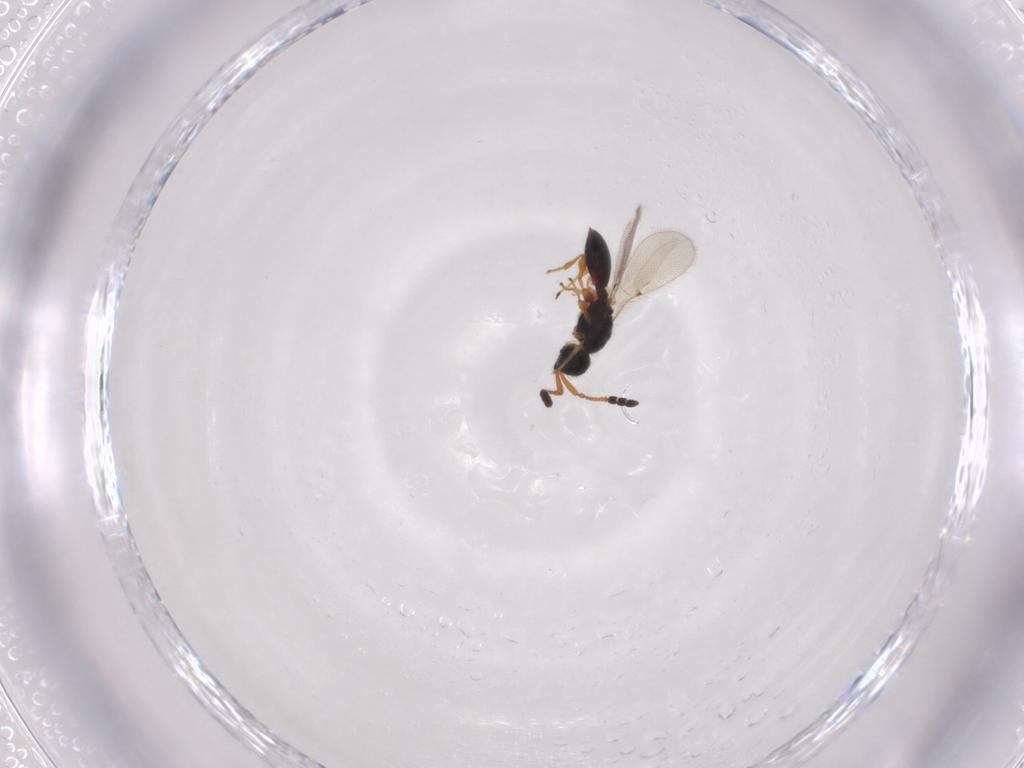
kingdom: Animalia
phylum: Arthropoda
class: Insecta
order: Hymenoptera
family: Diapriidae
